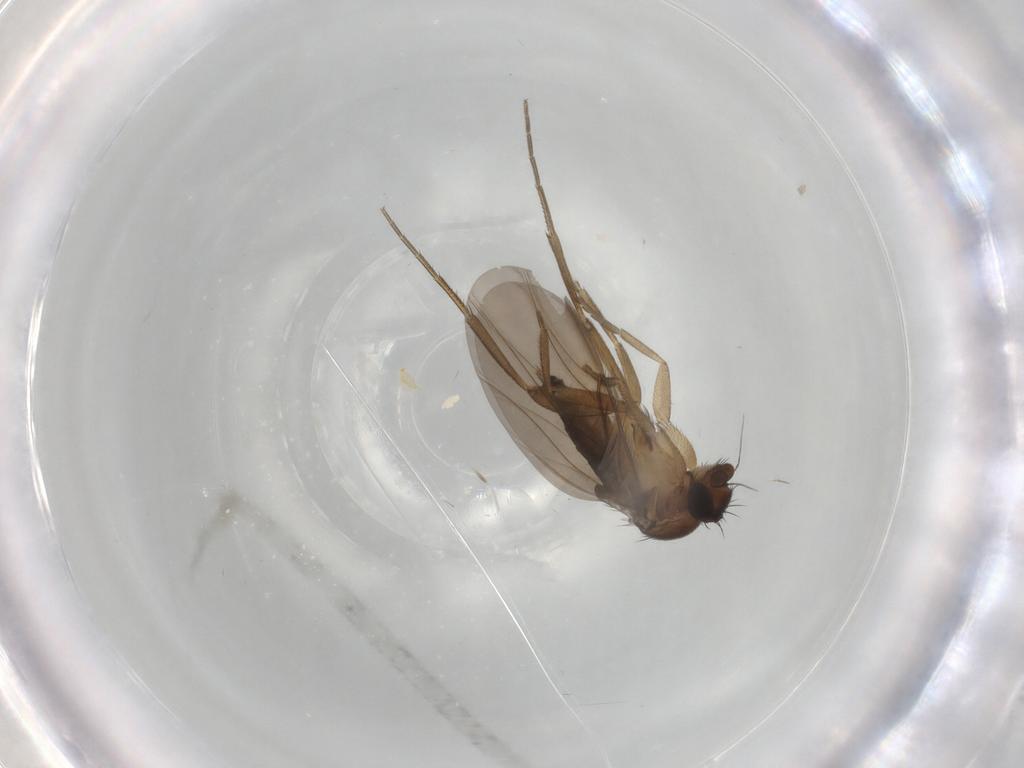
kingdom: Animalia
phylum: Arthropoda
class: Insecta
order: Diptera
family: Phoridae
